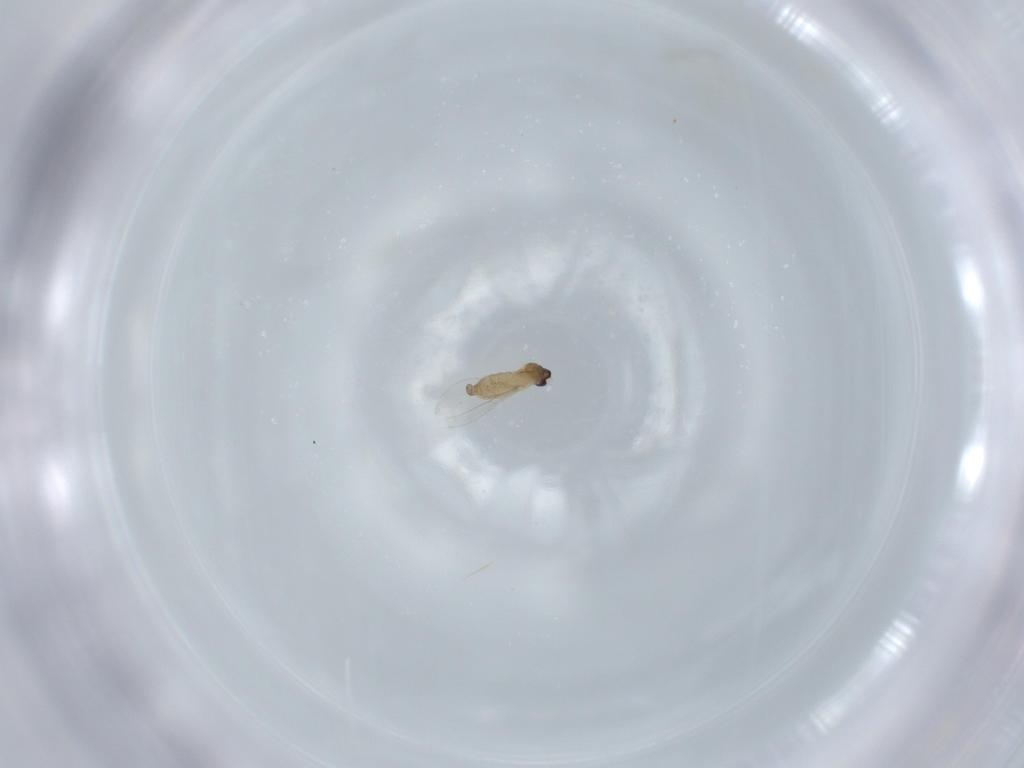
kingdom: Animalia
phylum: Arthropoda
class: Insecta
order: Diptera
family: Cecidomyiidae
